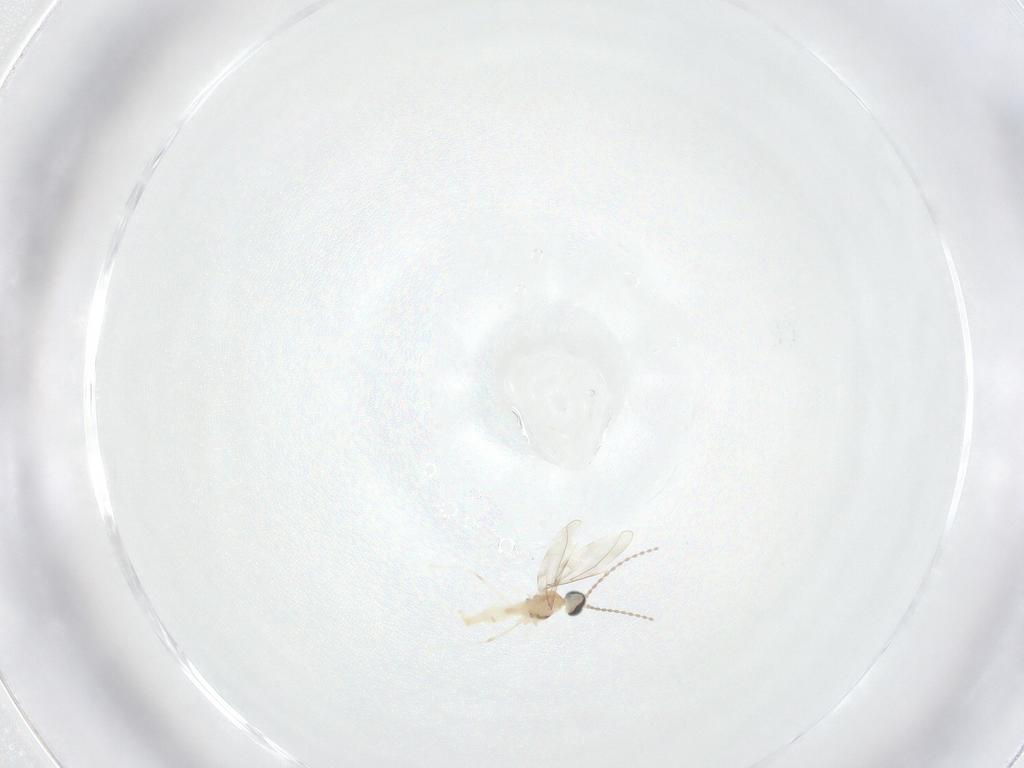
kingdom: Animalia
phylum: Arthropoda
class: Insecta
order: Diptera
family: Cecidomyiidae
